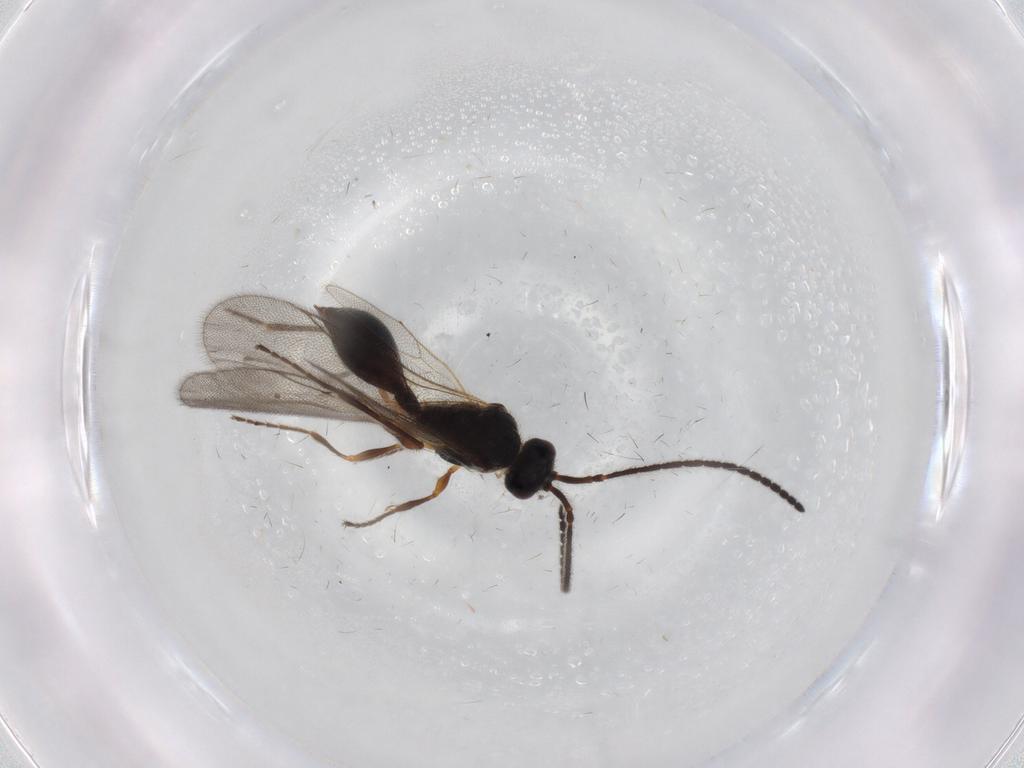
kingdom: Animalia
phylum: Arthropoda
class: Insecta
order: Hymenoptera
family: Diapriidae
